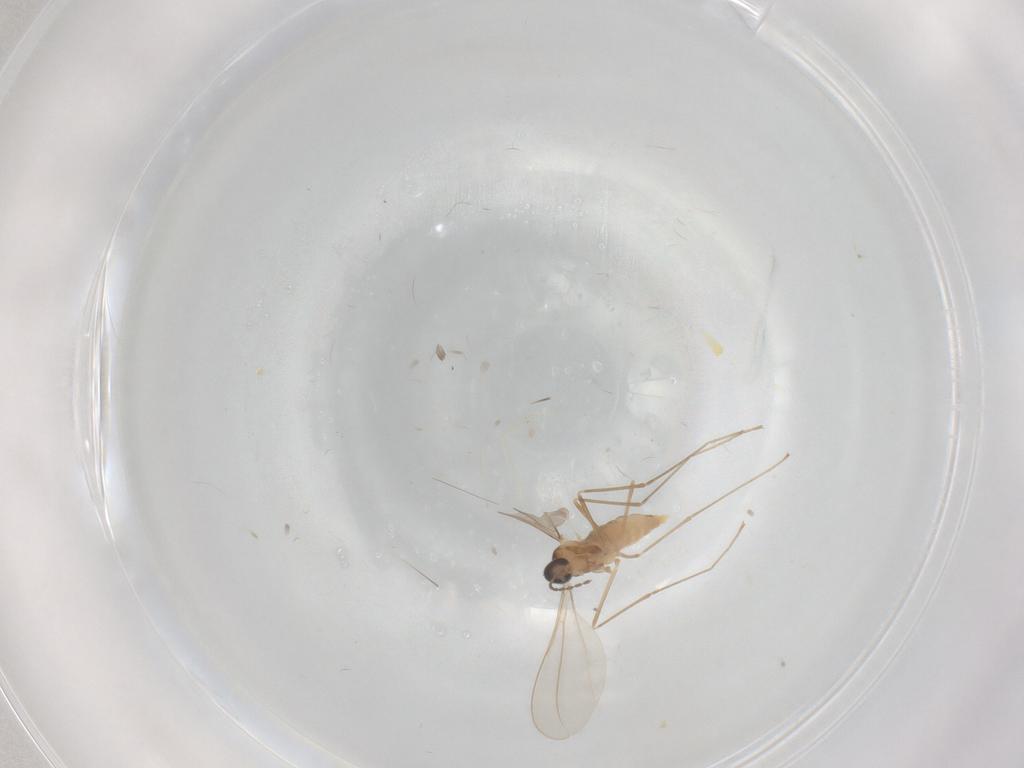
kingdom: Animalia
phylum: Arthropoda
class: Insecta
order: Diptera
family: Cecidomyiidae
